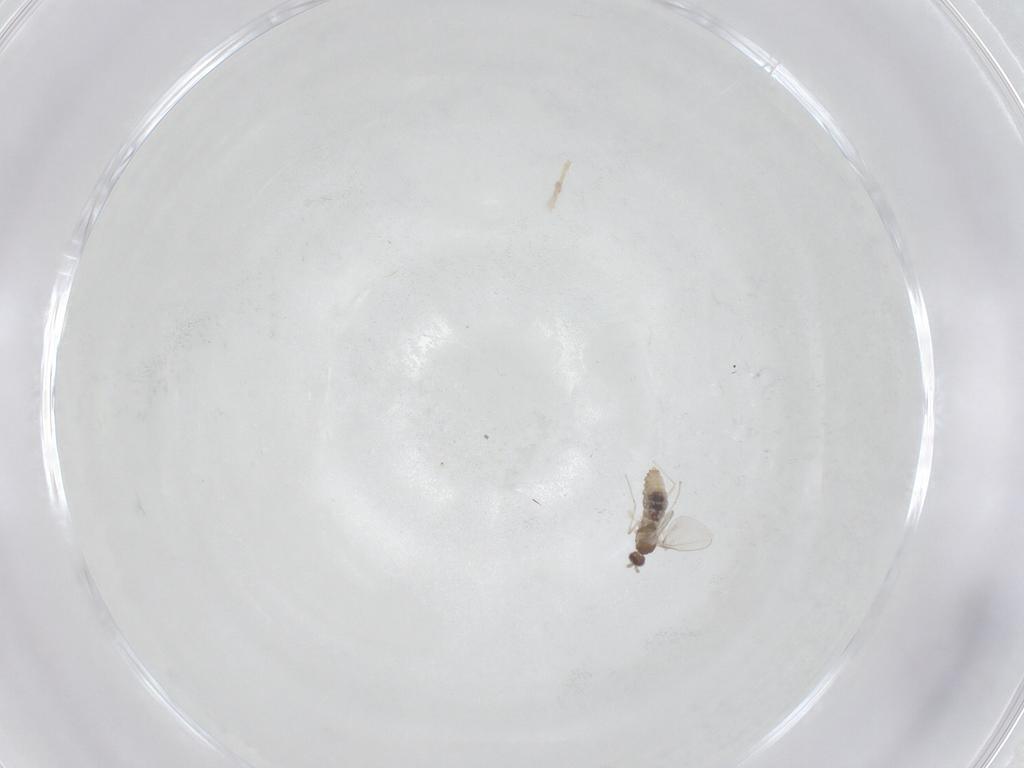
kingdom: Animalia
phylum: Arthropoda
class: Insecta
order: Diptera
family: Cecidomyiidae
